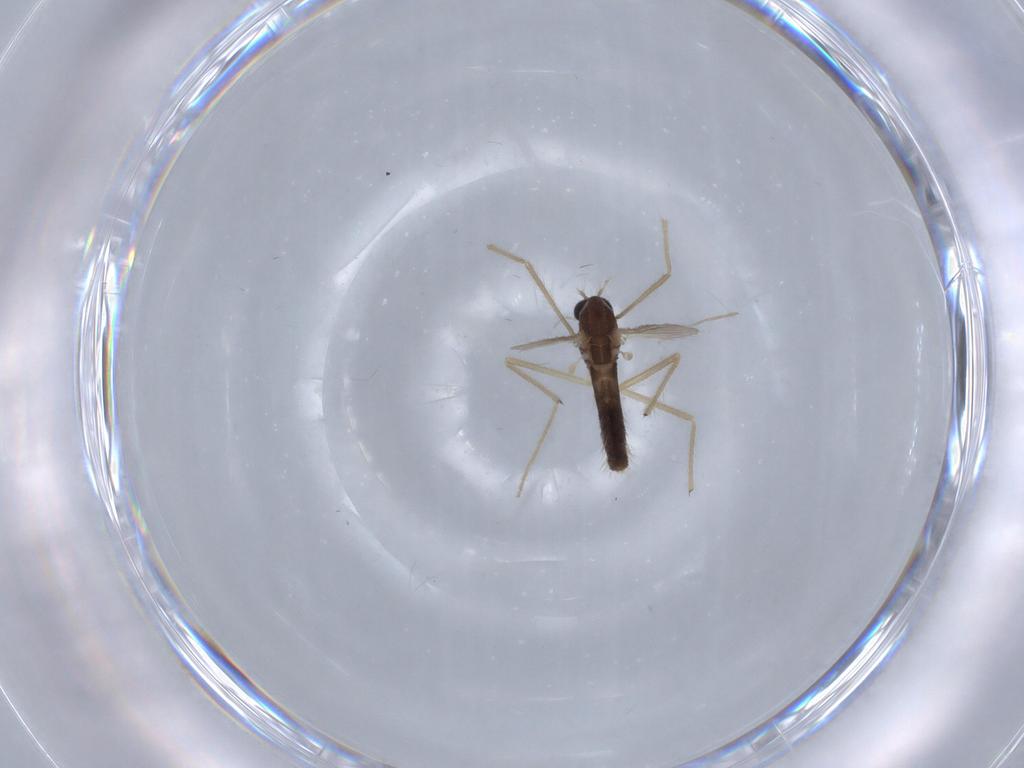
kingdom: Animalia
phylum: Arthropoda
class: Insecta
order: Diptera
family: Chironomidae
